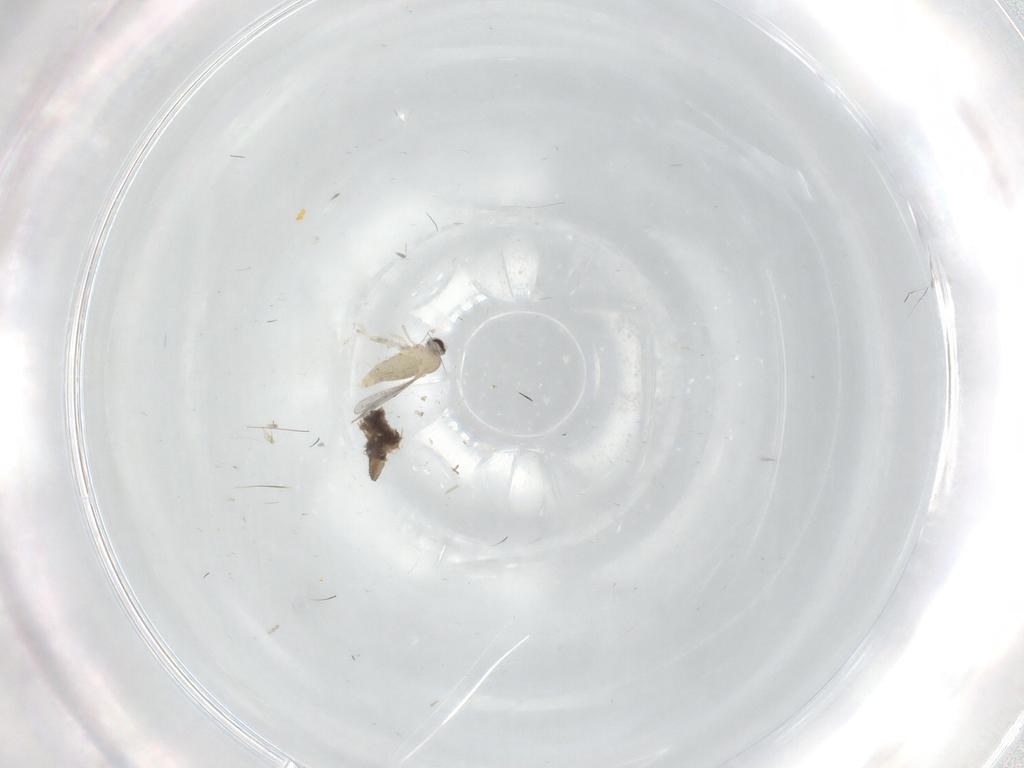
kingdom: Animalia
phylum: Arthropoda
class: Insecta
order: Diptera
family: Cecidomyiidae
